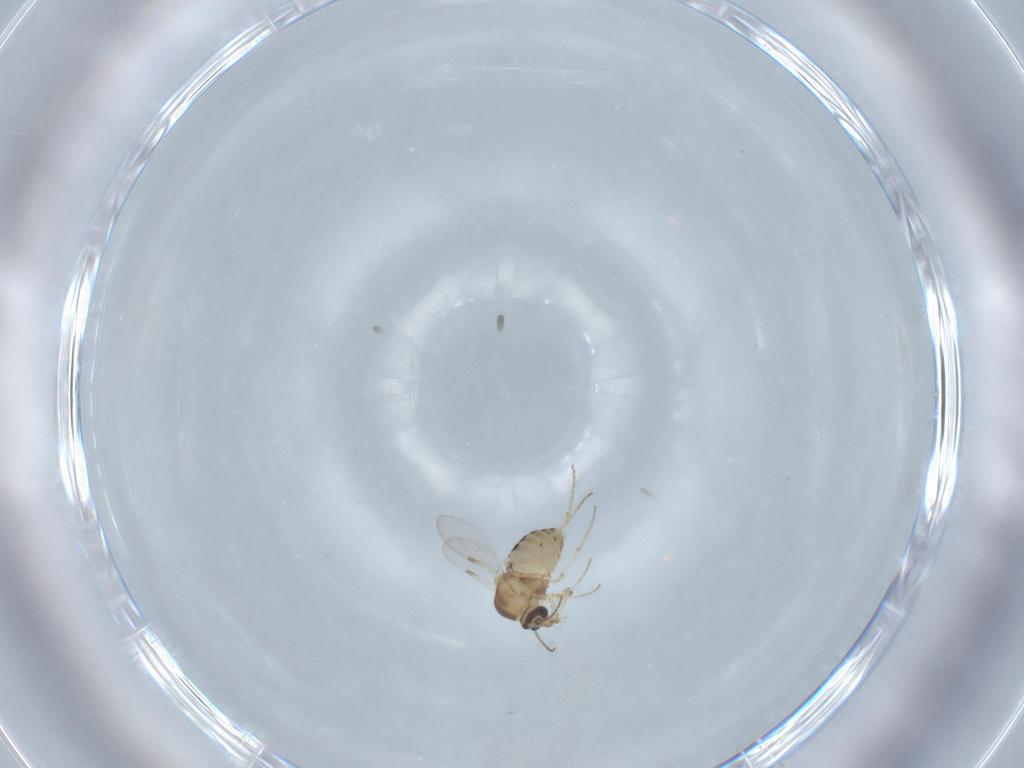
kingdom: Animalia
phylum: Arthropoda
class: Insecta
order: Diptera
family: Ceratopogonidae
